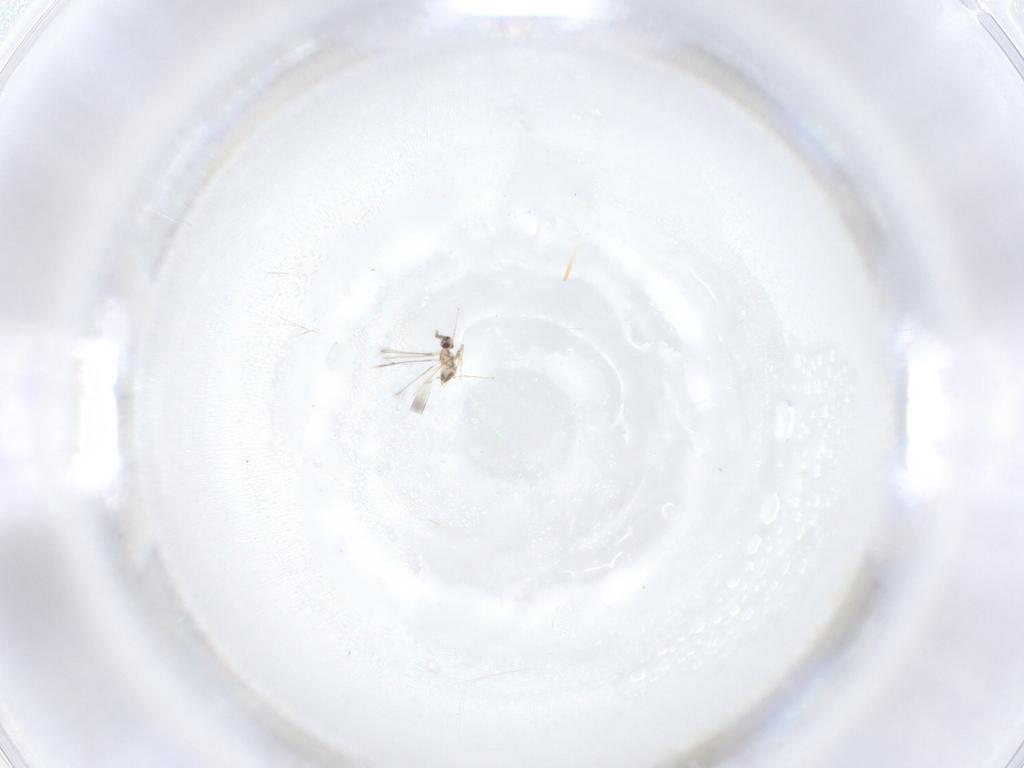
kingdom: Animalia
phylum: Arthropoda
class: Insecta
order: Hymenoptera
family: Mymaridae
